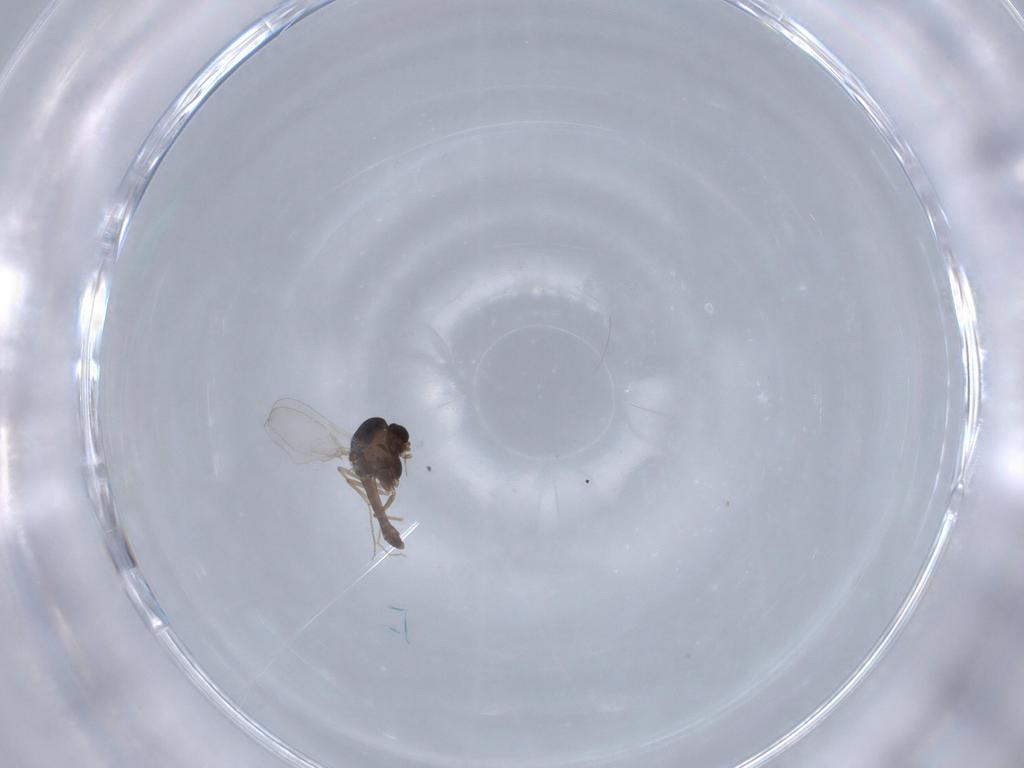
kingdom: Animalia
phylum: Arthropoda
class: Insecta
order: Diptera
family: Chironomidae
